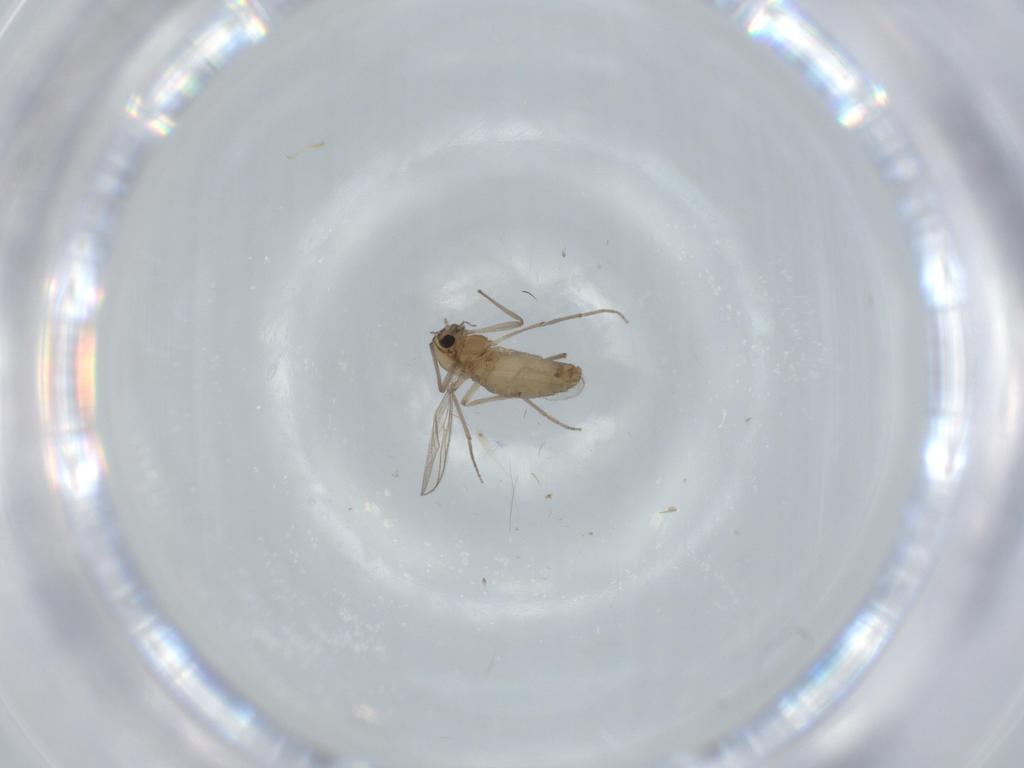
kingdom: Animalia
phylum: Arthropoda
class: Insecta
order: Diptera
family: Chironomidae
